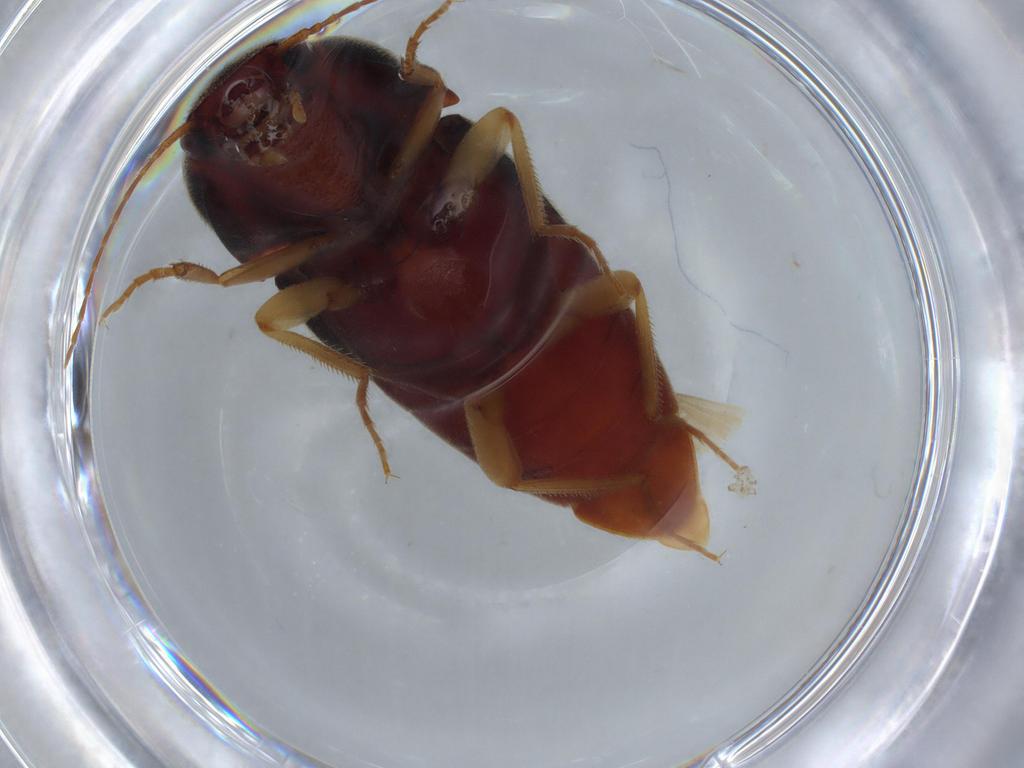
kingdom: Animalia
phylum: Arthropoda
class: Insecta
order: Coleoptera
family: Elateridae
